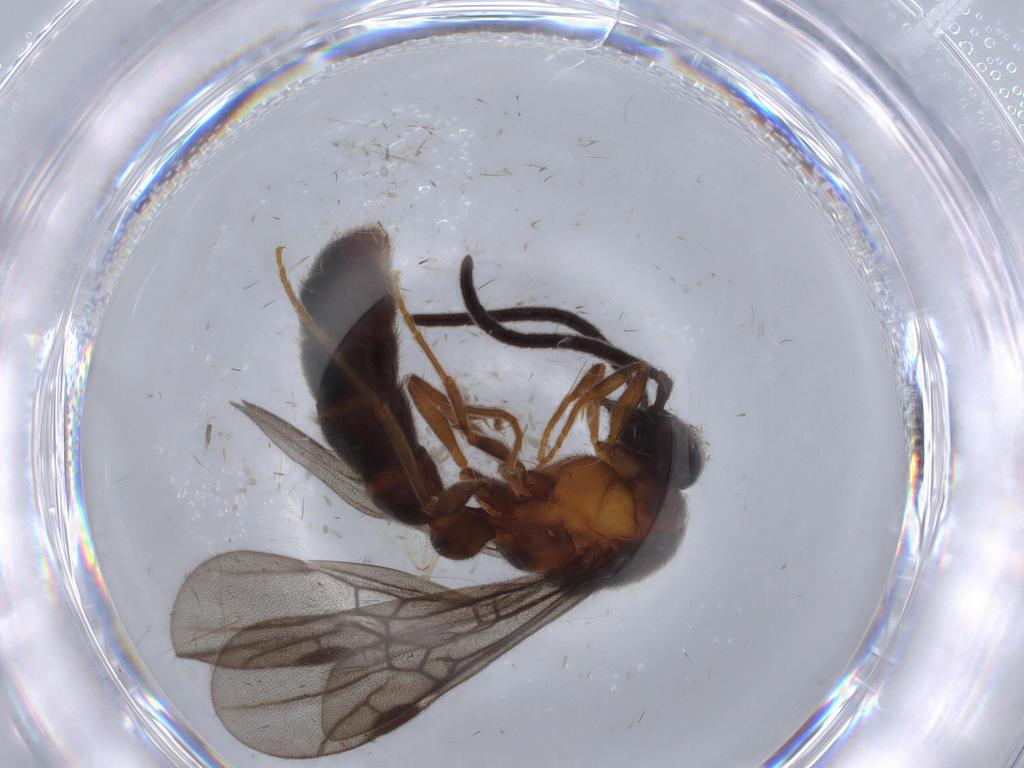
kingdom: Animalia
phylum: Arthropoda
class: Insecta
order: Hymenoptera
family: Formicidae
